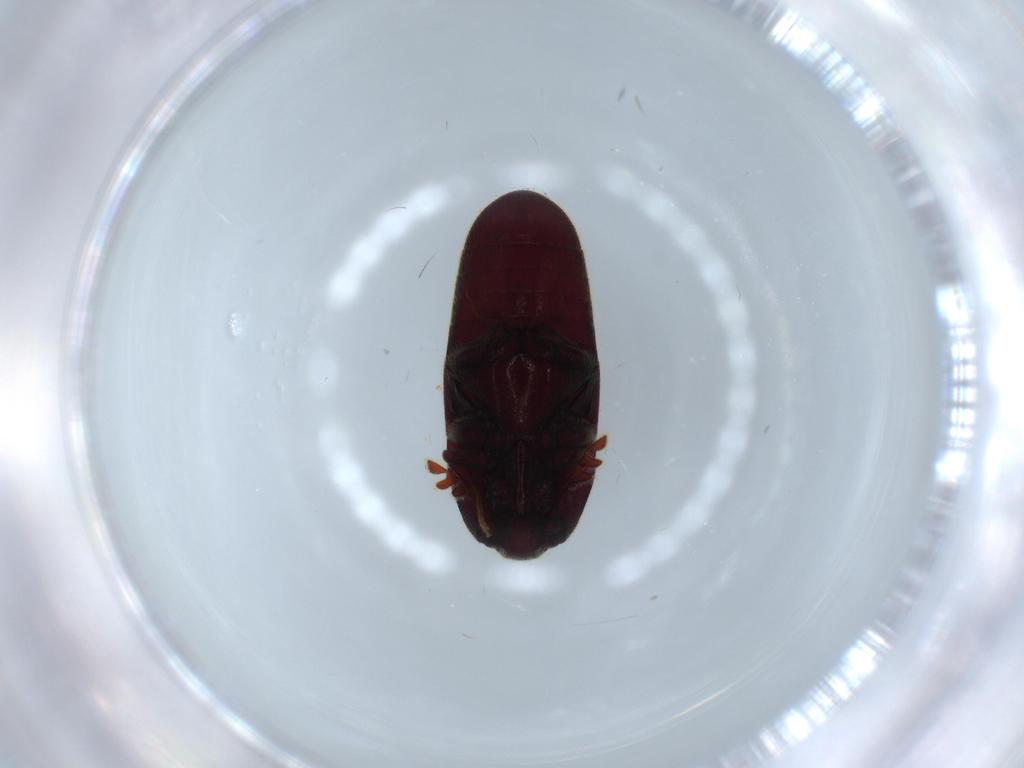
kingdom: Animalia
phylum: Arthropoda
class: Insecta
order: Coleoptera
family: Throscidae
